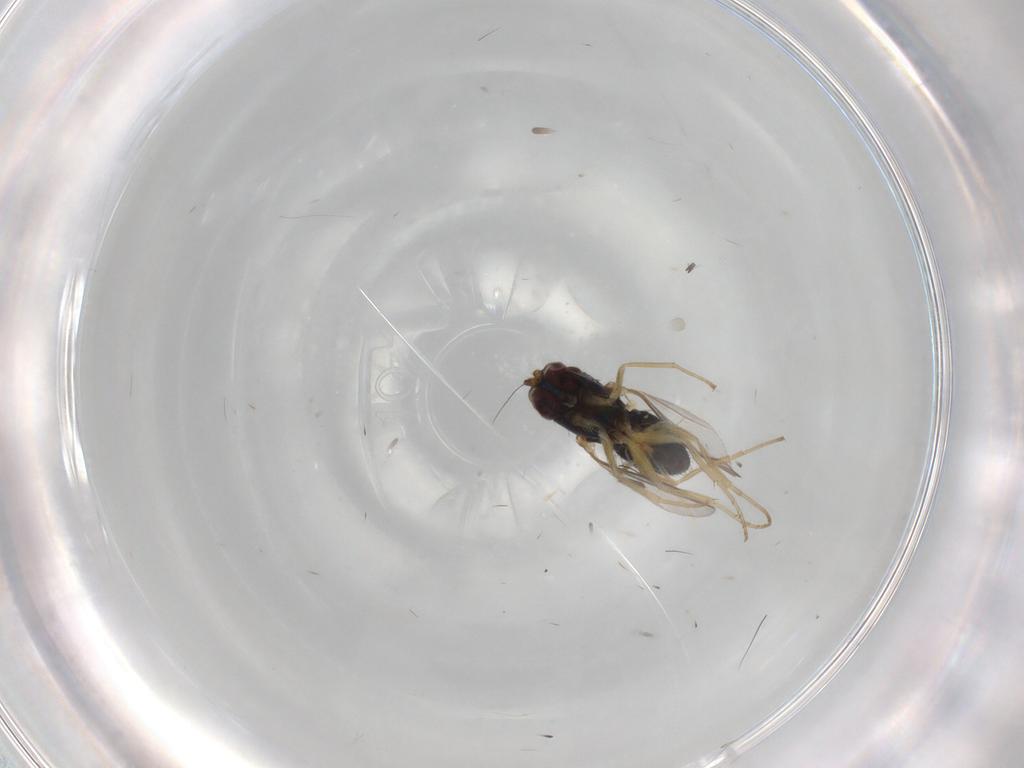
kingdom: Animalia
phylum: Arthropoda
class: Insecta
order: Diptera
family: Dolichopodidae
